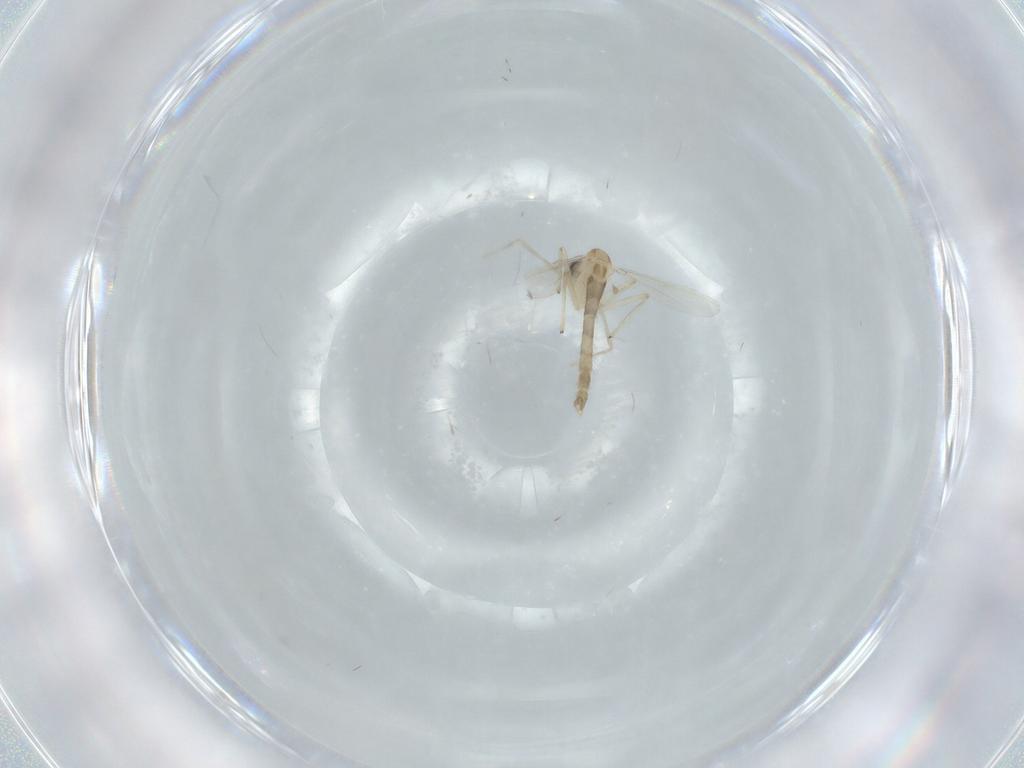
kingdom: Animalia
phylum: Arthropoda
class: Insecta
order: Diptera
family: Chironomidae
